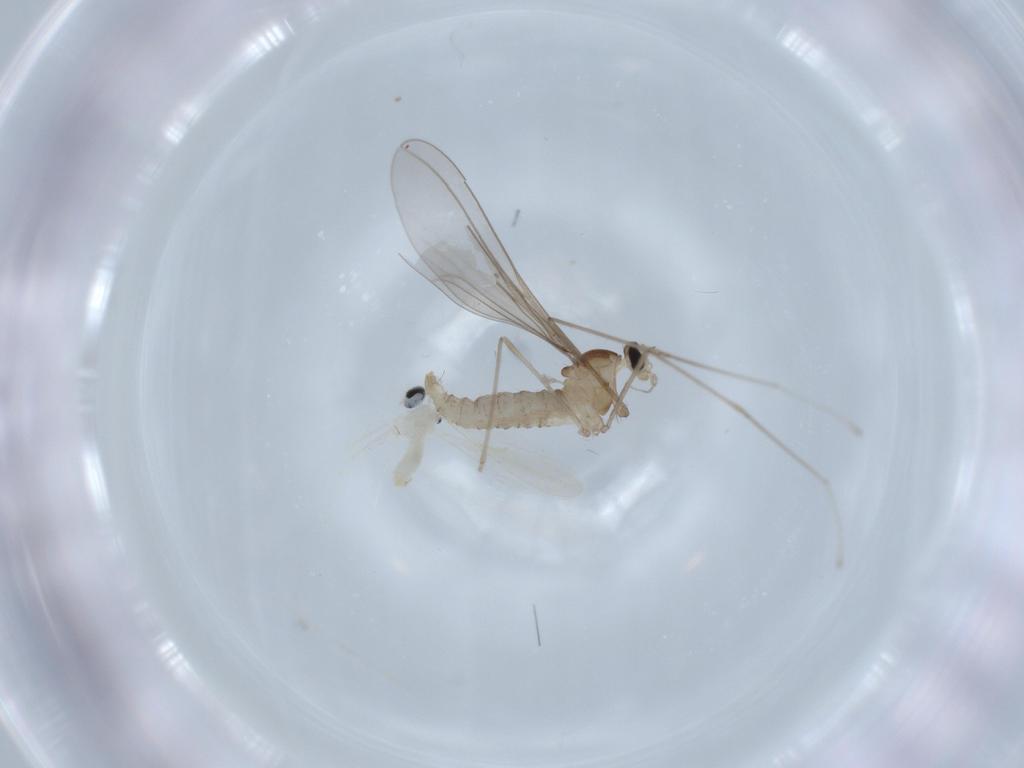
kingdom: Animalia
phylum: Arthropoda
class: Insecta
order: Diptera
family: Cecidomyiidae
